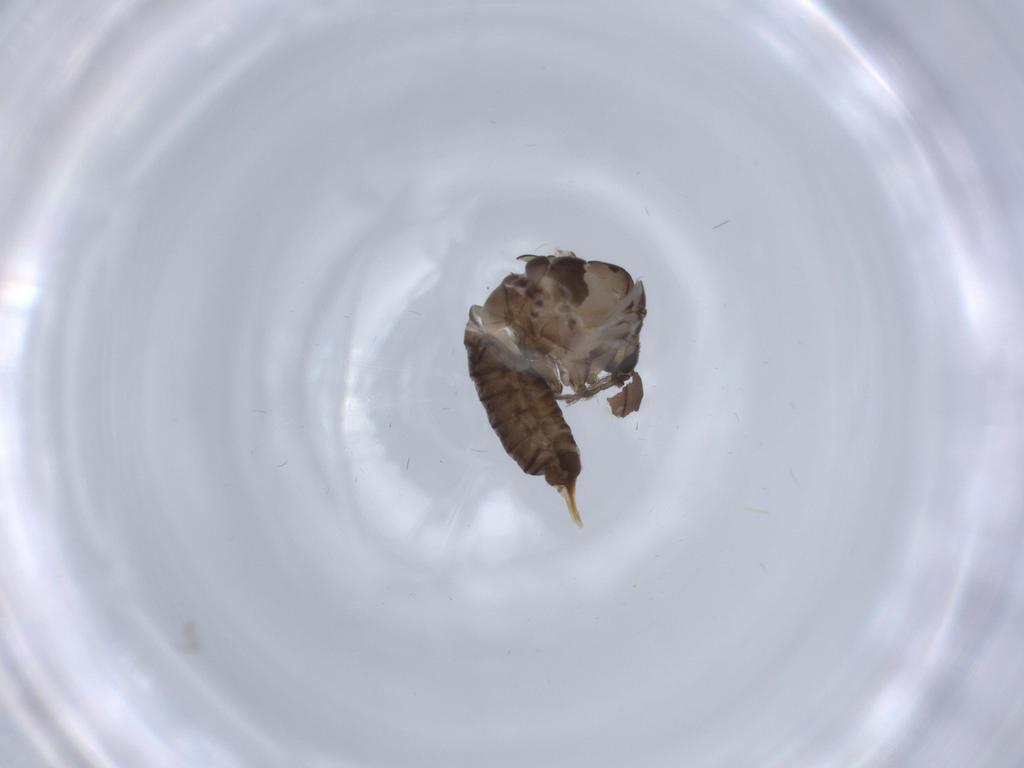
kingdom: Animalia
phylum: Arthropoda
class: Insecta
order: Diptera
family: Psychodidae
